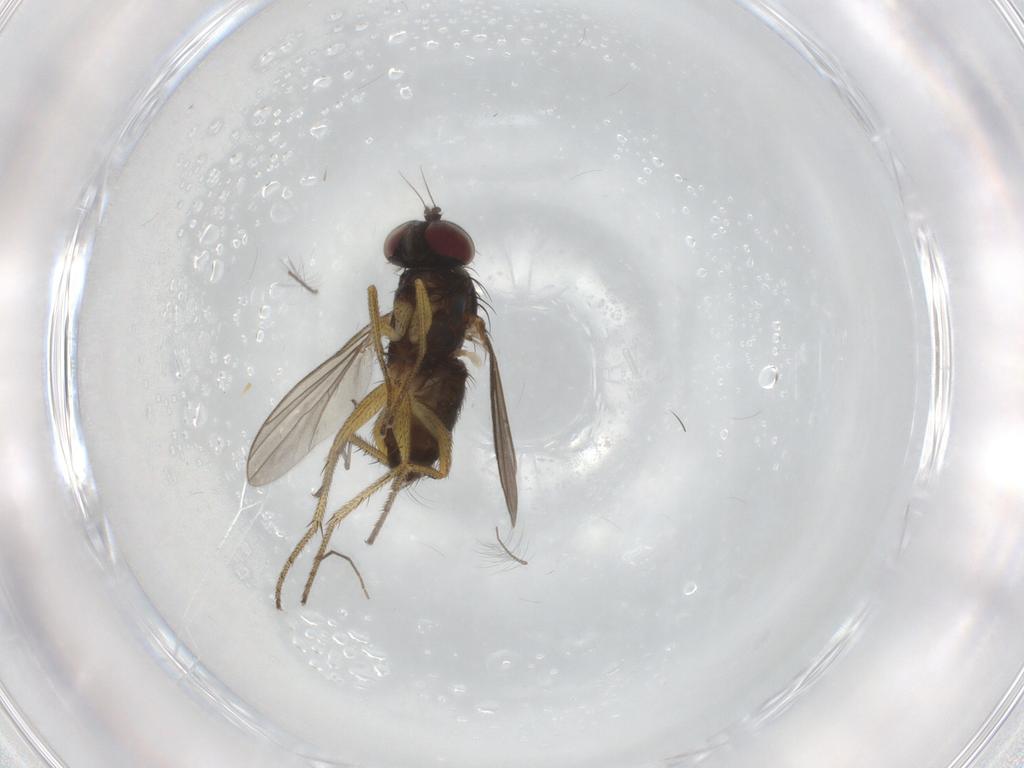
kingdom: Animalia
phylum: Arthropoda
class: Insecta
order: Diptera
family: Sciaridae
